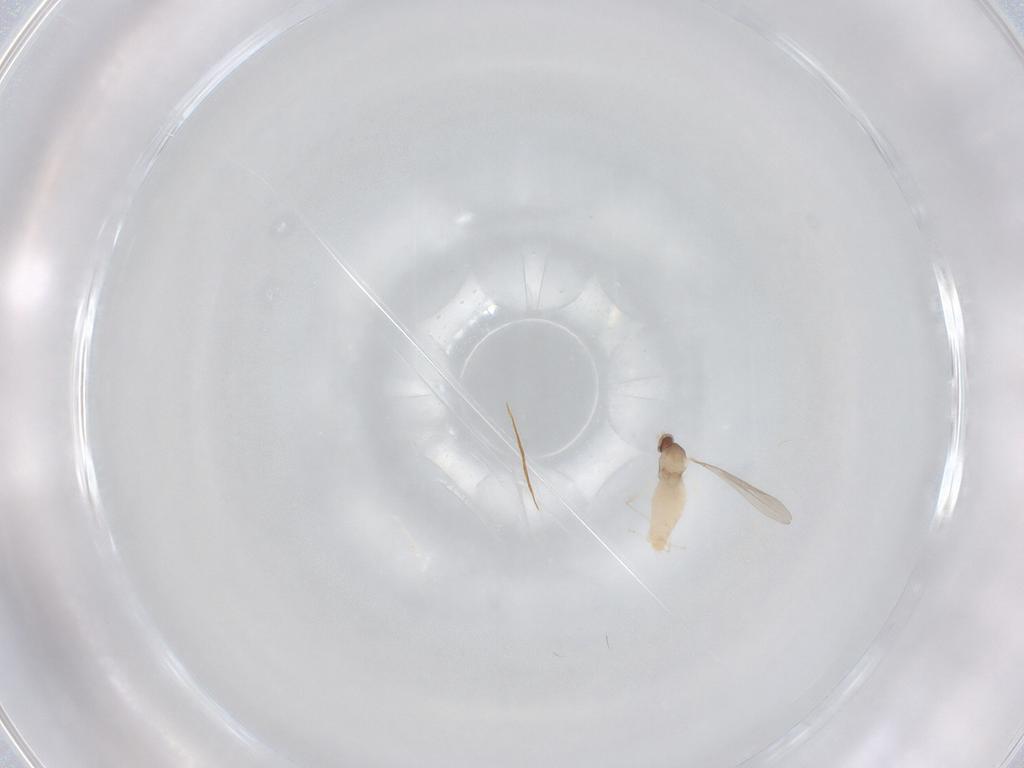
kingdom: Animalia
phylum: Arthropoda
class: Insecta
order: Diptera
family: Cecidomyiidae
